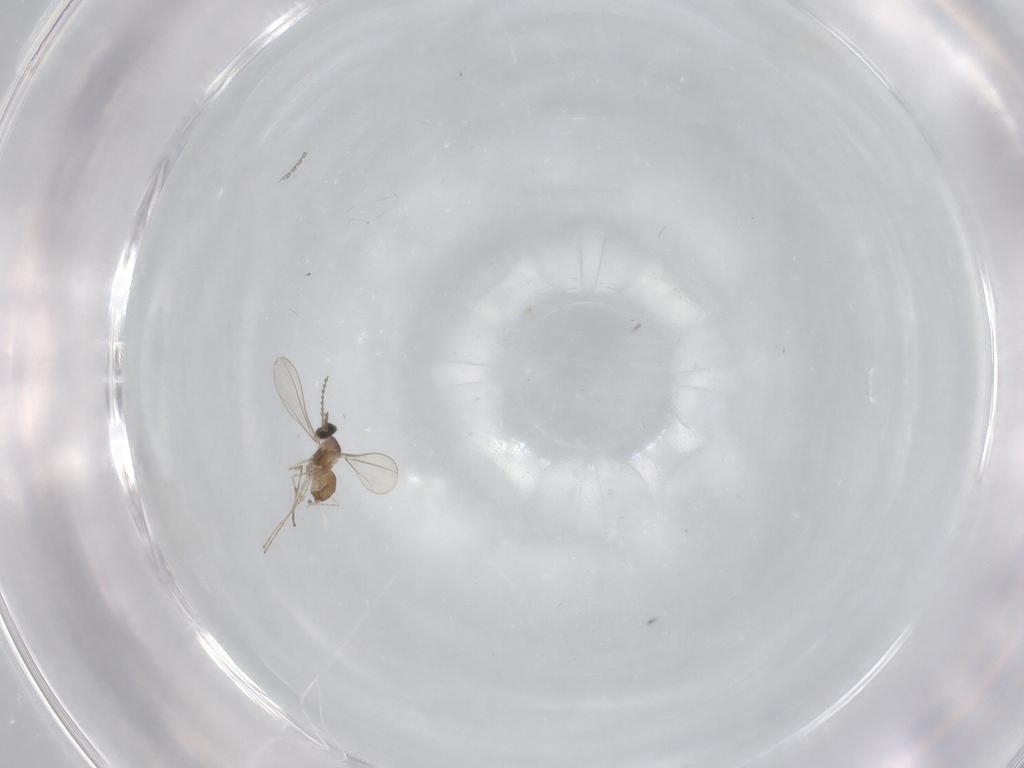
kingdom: Animalia
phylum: Arthropoda
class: Insecta
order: Diptera
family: Cecidomyiidae
